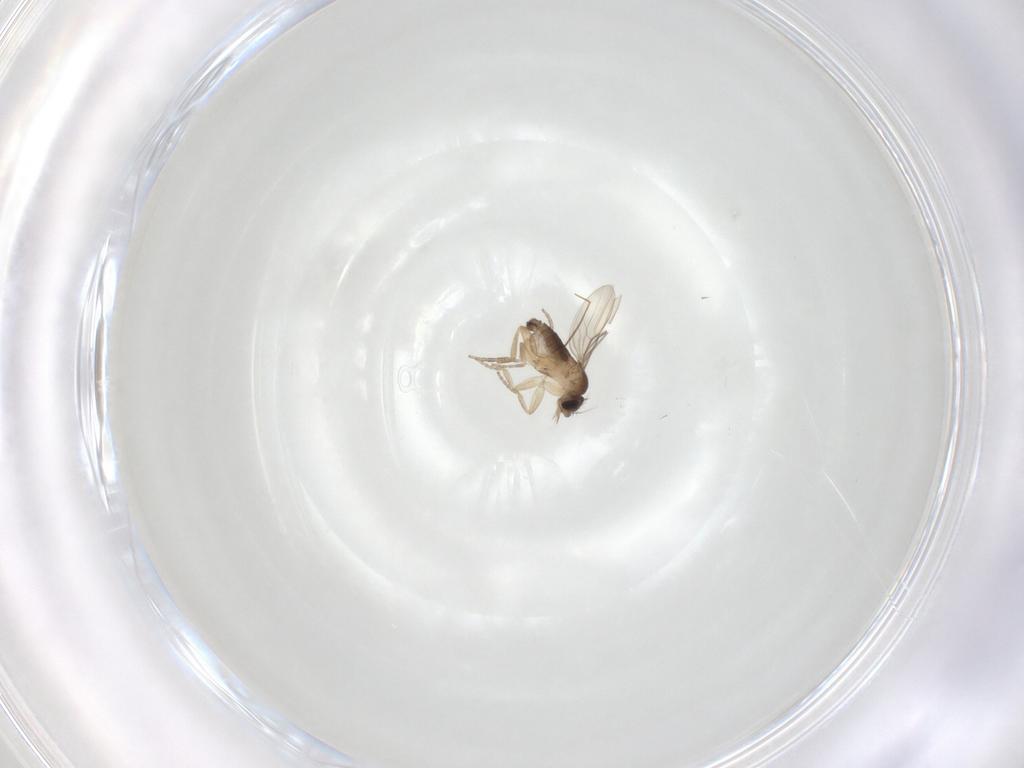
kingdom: Animalia
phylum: Arthropoda
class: Insecta
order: Diptera
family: Phoridae
